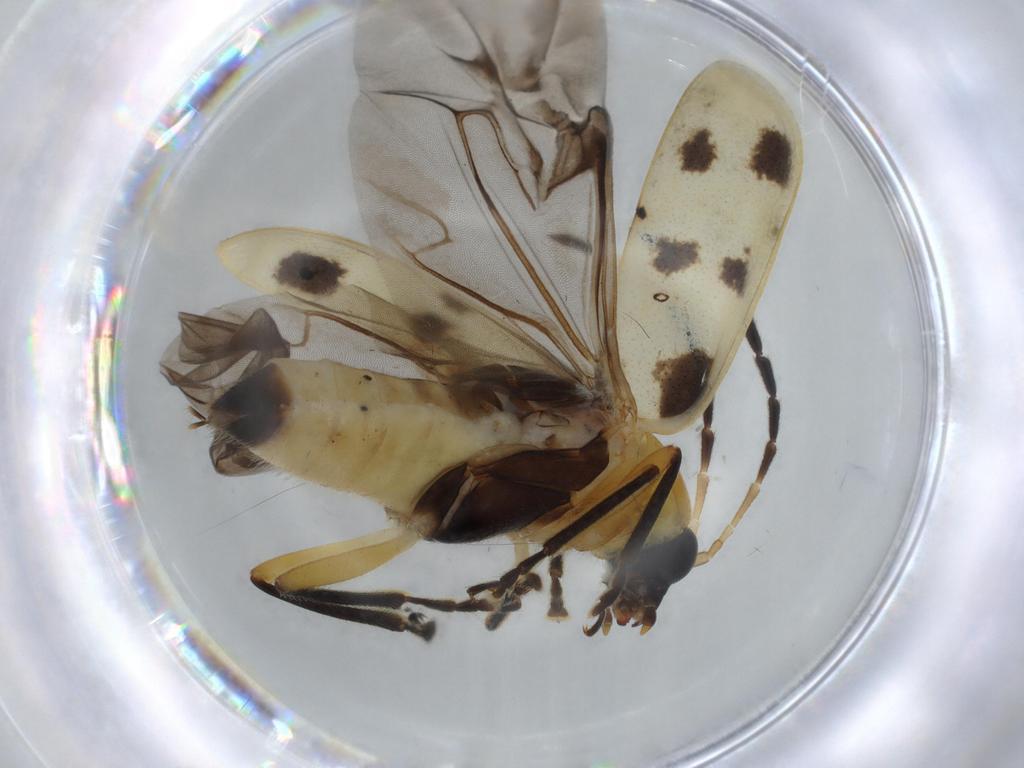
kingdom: Animalia
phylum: Arthropoda
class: Insecta
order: Coleoptera
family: Chrysomelidae
